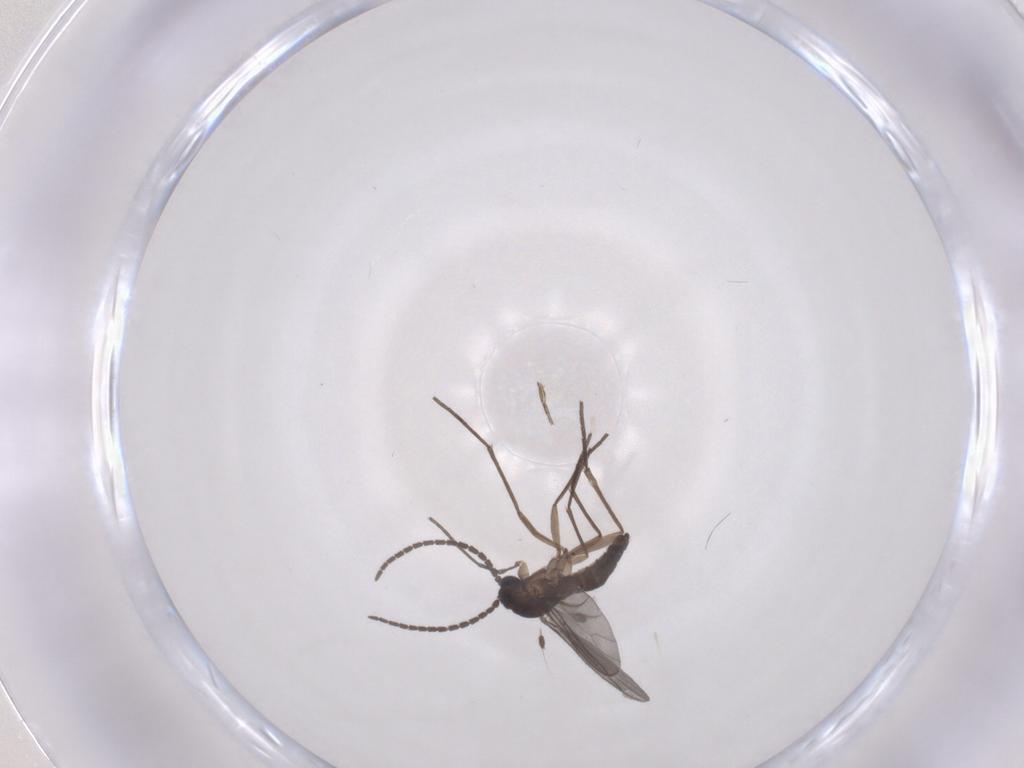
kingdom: Animalia
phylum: Arthropoda
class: Insecta
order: Diptera
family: Sciaridae
